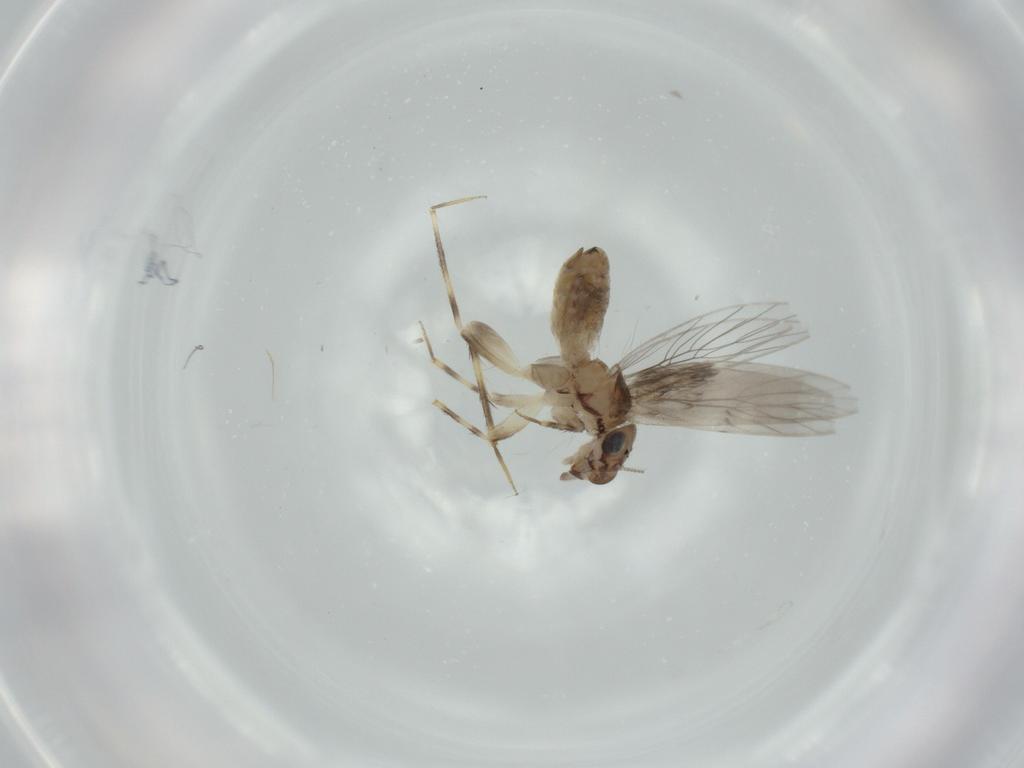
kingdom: Animalia
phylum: Arthropoda
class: Insecta
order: Psocodea
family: Lepidopsocidae
